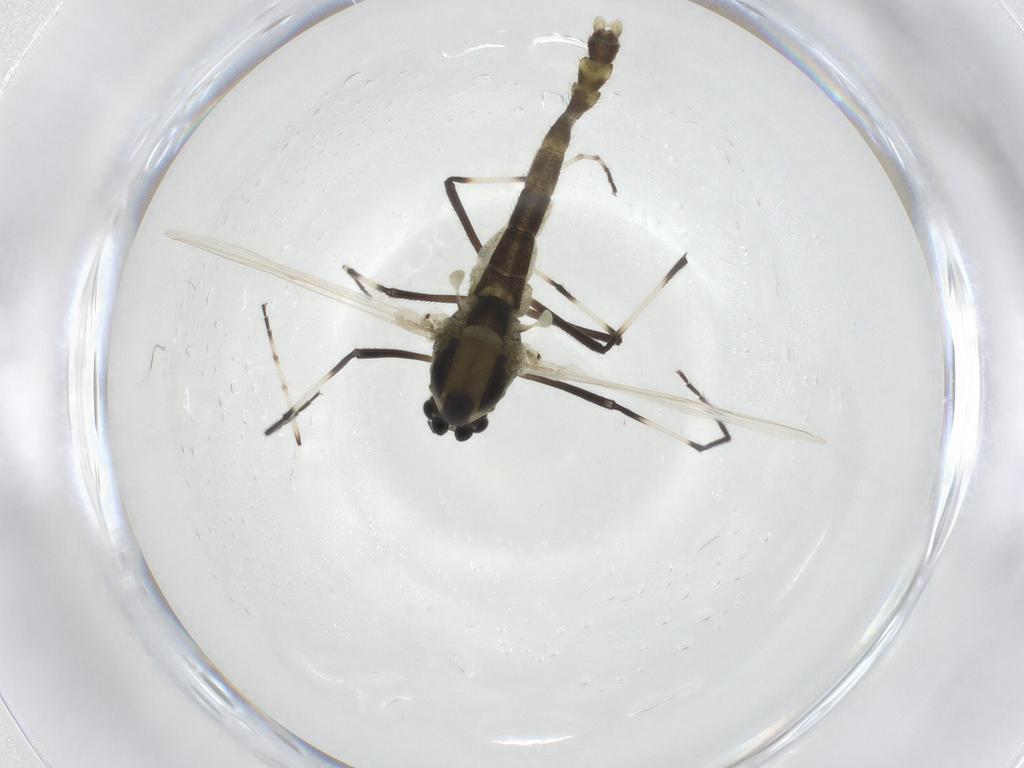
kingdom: Animalia
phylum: Arthropoda
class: Insecta
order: Diptera
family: Chironomidae
